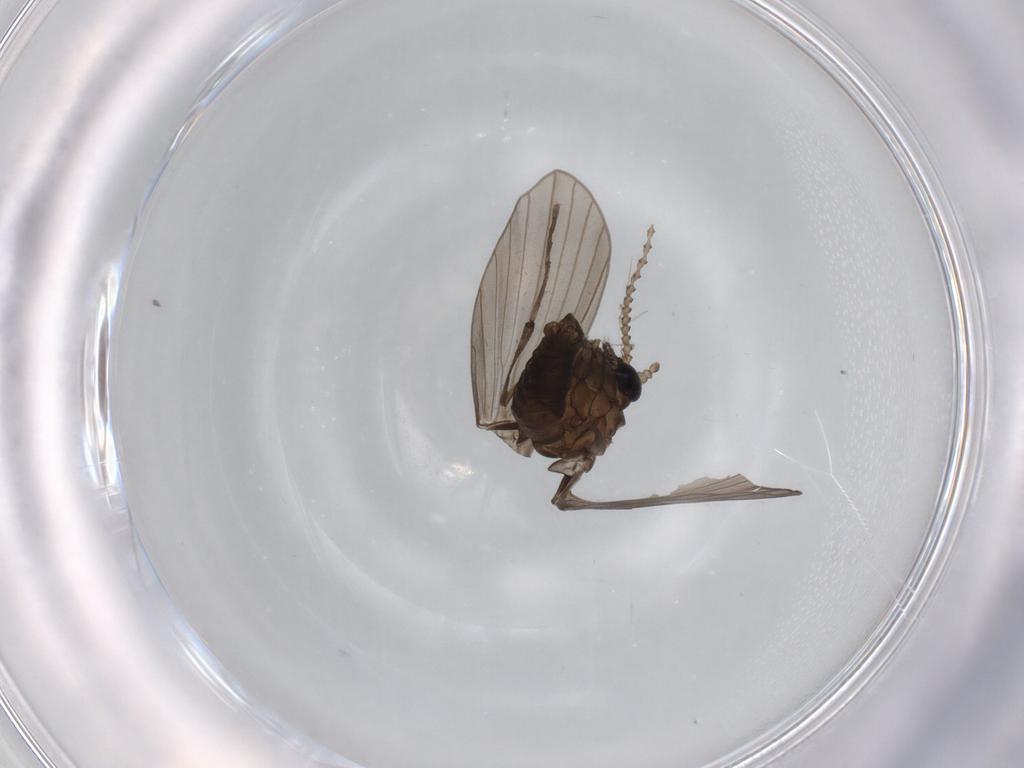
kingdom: Animalia
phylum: Arthropoda
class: Insecta
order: Diptera
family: Keroplatidae
